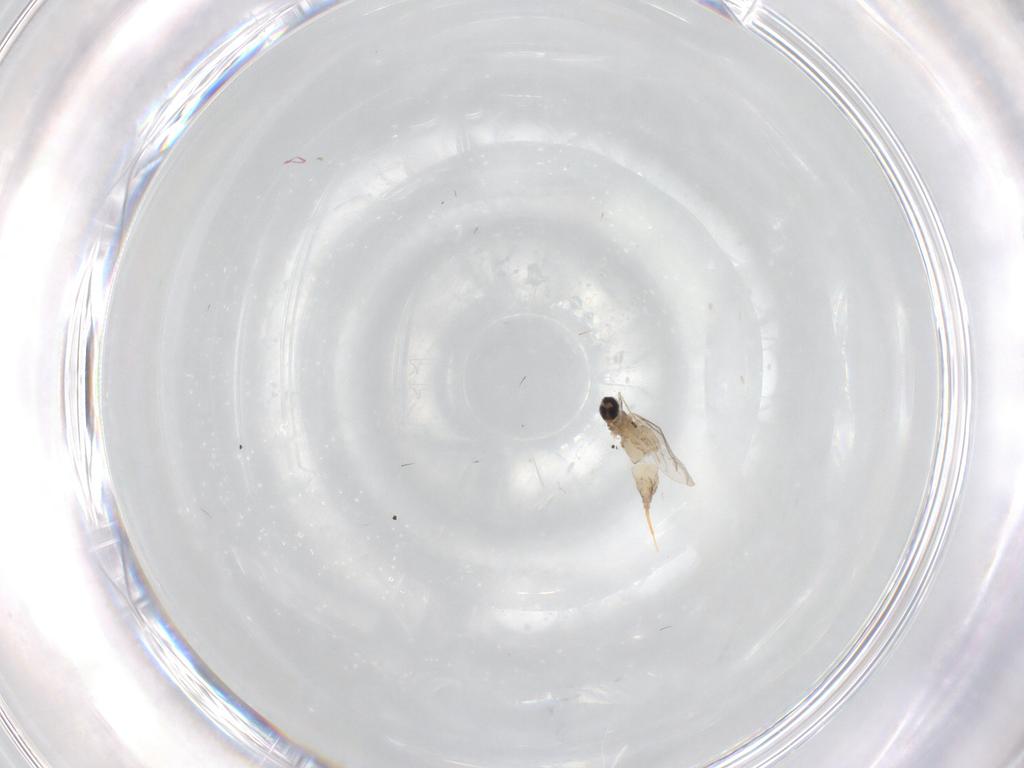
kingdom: Animalia
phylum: Arthropoda
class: Insecta
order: Diptera
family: Cecidomyiidae
